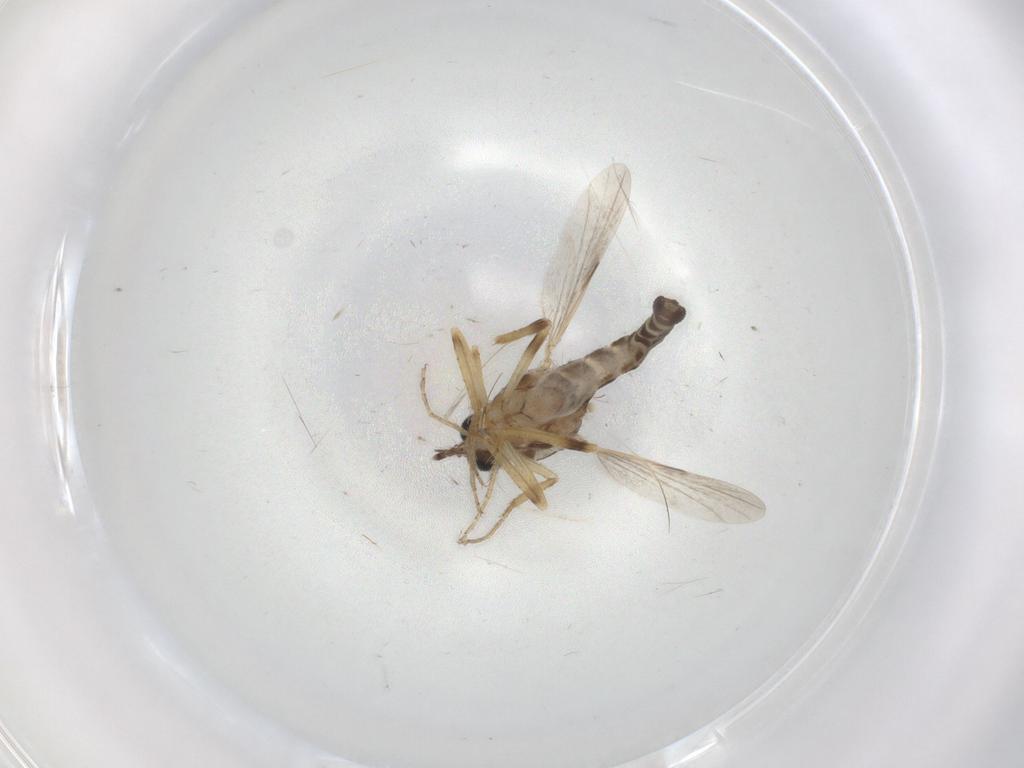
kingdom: Animalia
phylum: Arthropoda
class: Insecta
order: Diptera
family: Ceratopogonidae
